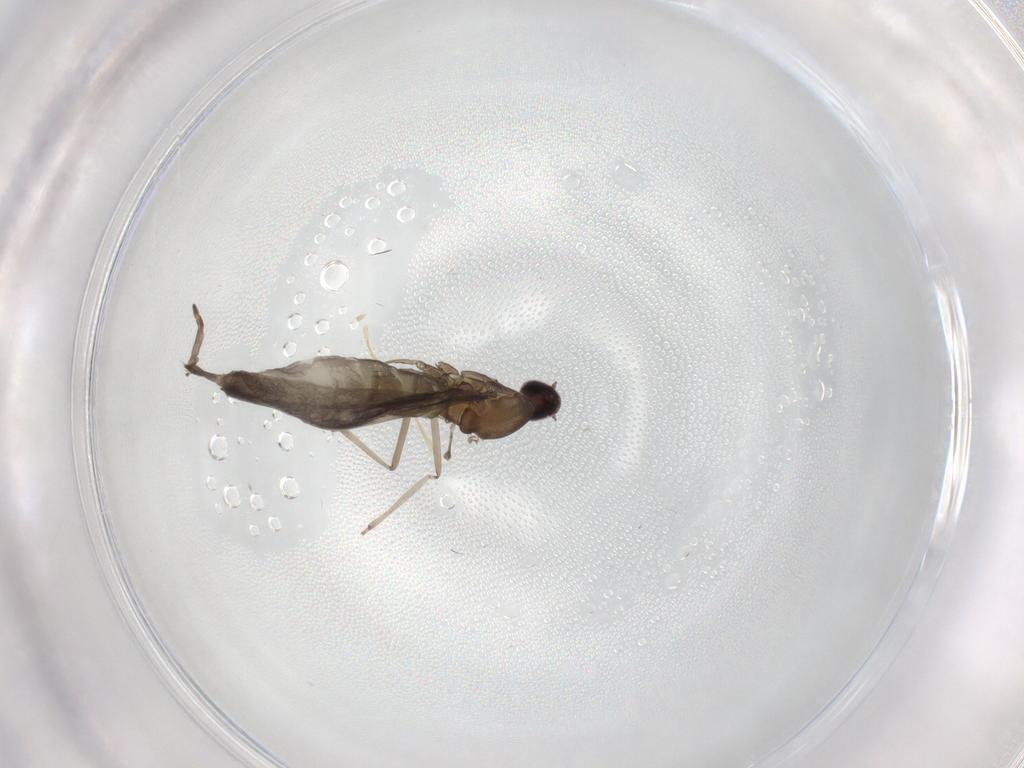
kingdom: Animalia
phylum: Arthropoda
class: Insecta
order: Diptera
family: Cecidomyiidae
